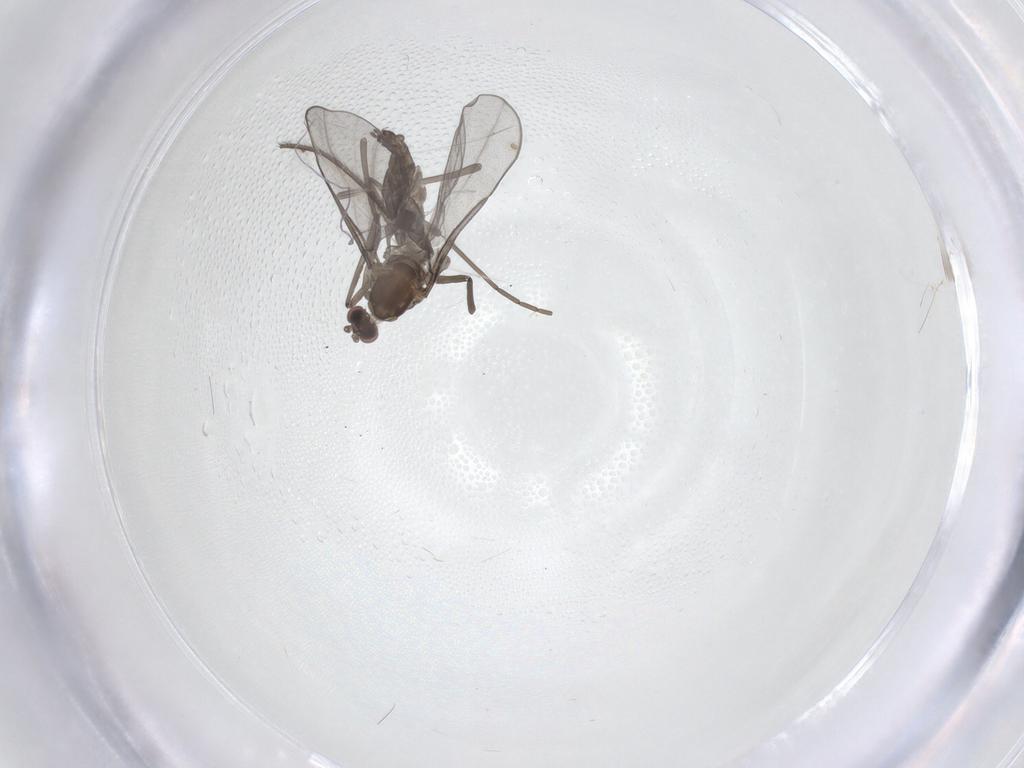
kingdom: Animalia
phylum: Arthropoda
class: Insecta
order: Diptera
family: Cecidomyiidae
